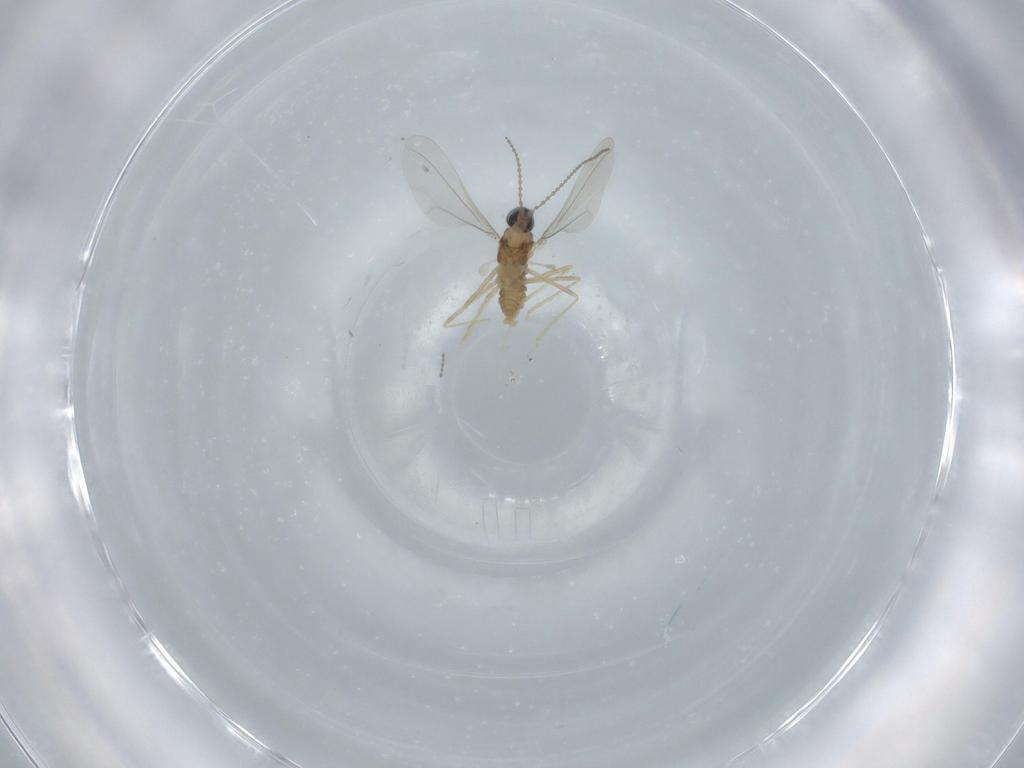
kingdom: Animalia
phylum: Arthropoda
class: Insecta
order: Diptera
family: Cecidomyiidae
